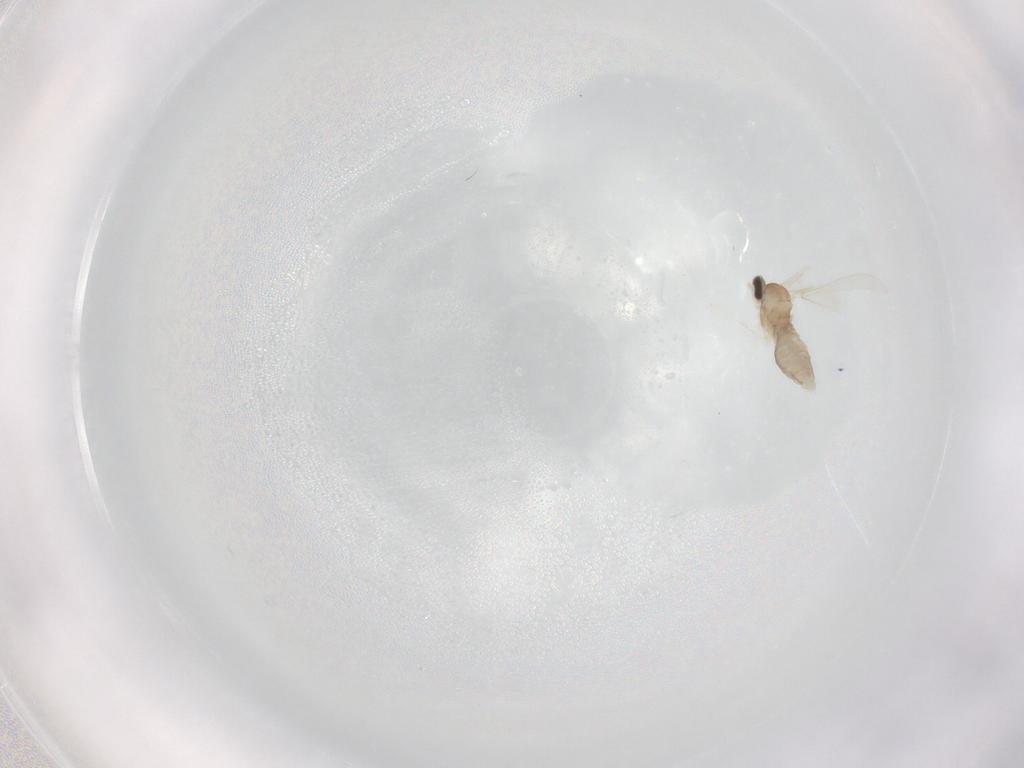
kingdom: Animalia
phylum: Arthropoda
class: Insecta
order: Diptera
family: Cecidomyiidae
